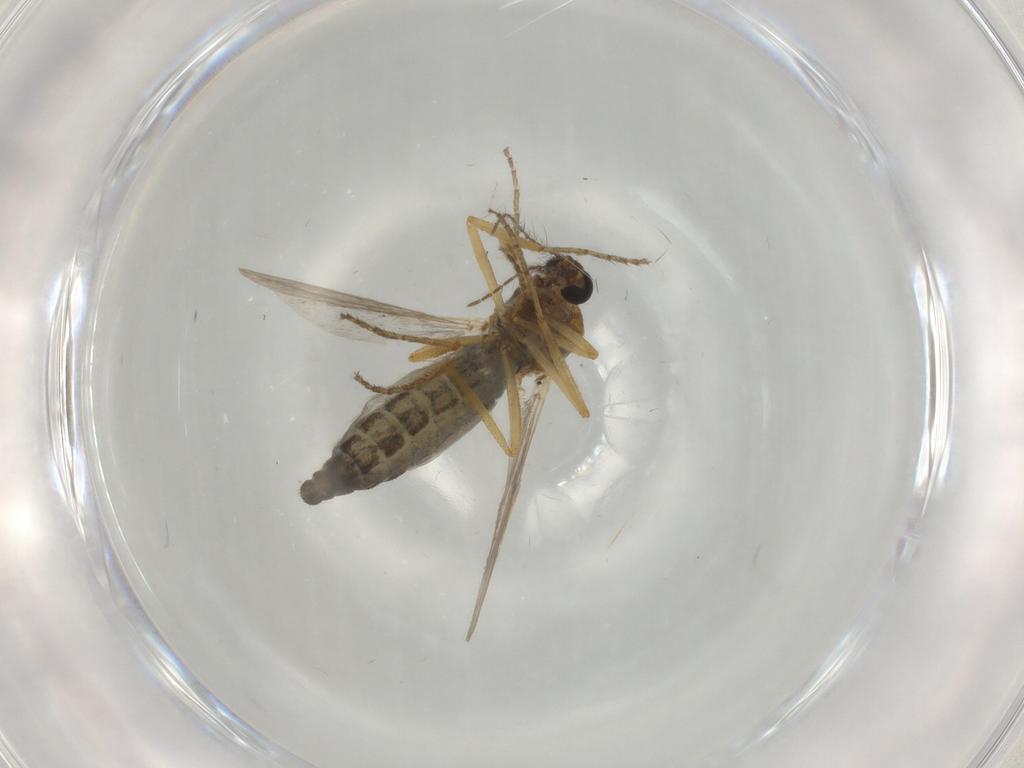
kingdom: Animalia
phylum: Arthropoda
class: Insecta
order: Diptera
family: Ceratopogonidae
